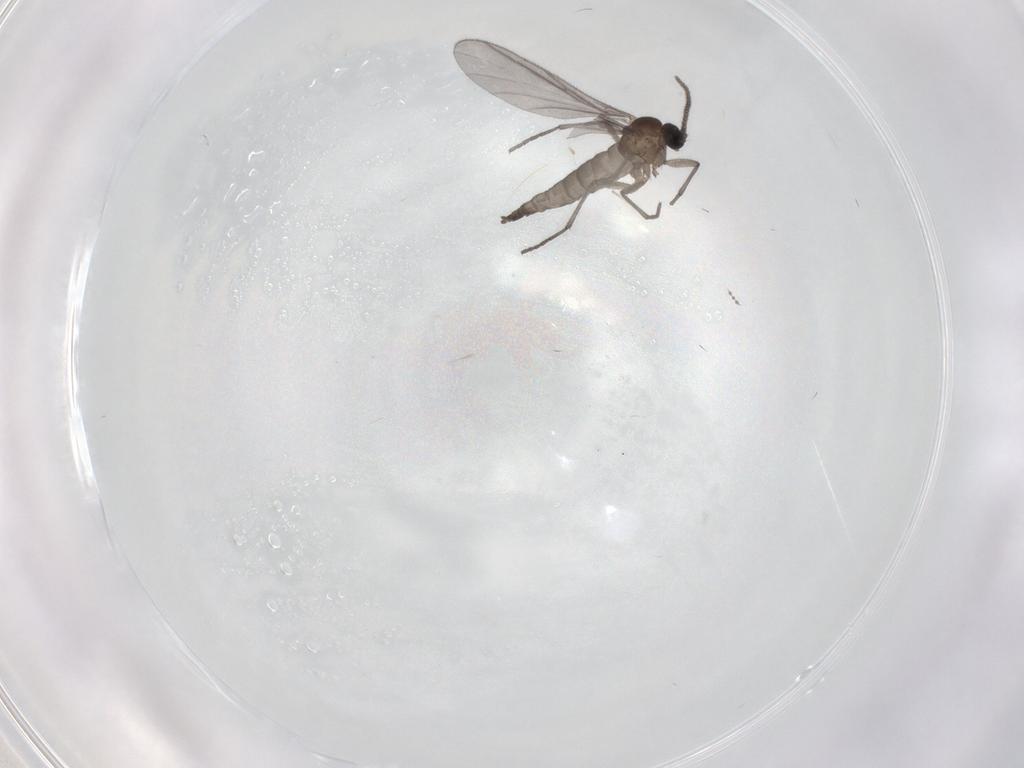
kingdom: Animalia
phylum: Arthropoda
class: Insecta
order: Diptera
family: Sciaridae
